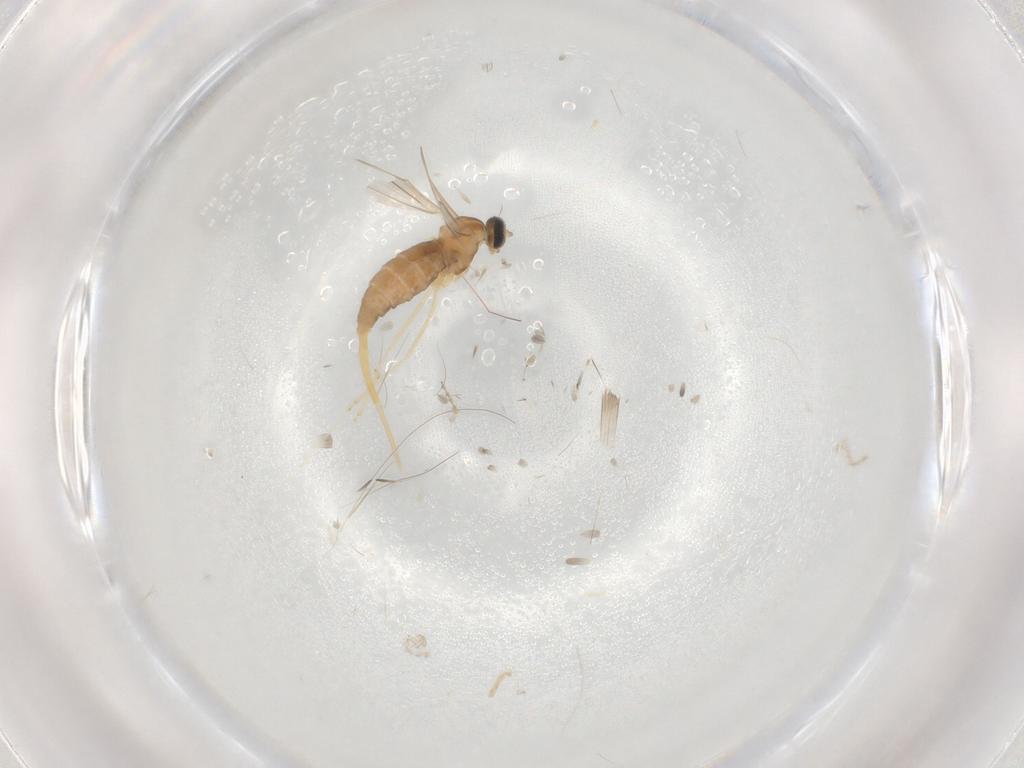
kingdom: Animalia
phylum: Arthropoda
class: Insecta
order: Diptera
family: Cecidomyiidae
